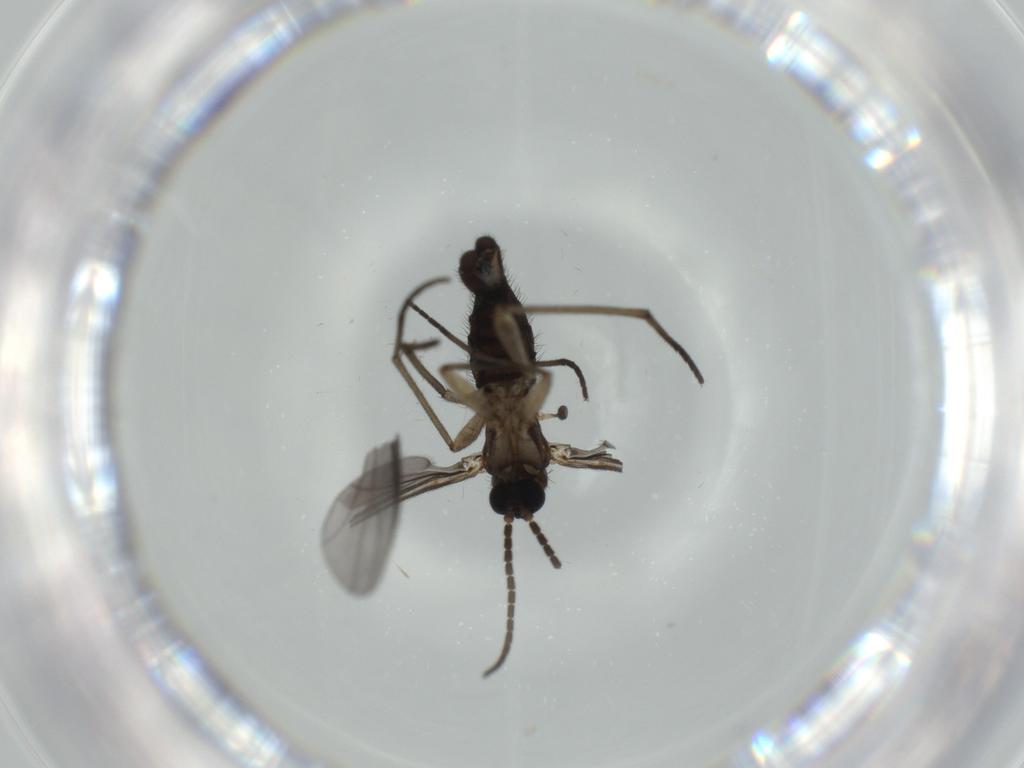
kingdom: Animalia
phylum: Arthropoda
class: Insecta
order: Diptera
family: Sciaridae
